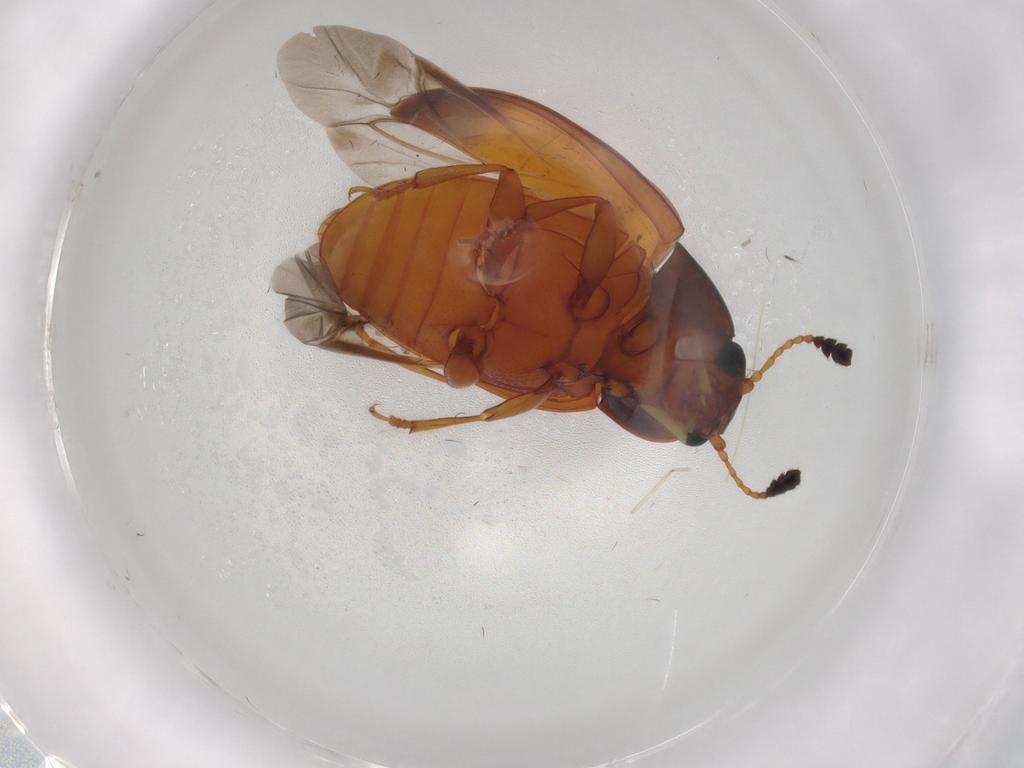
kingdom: Animalia
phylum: Arthropoda
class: Insecta
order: Coleoptera
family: Erotylidae
